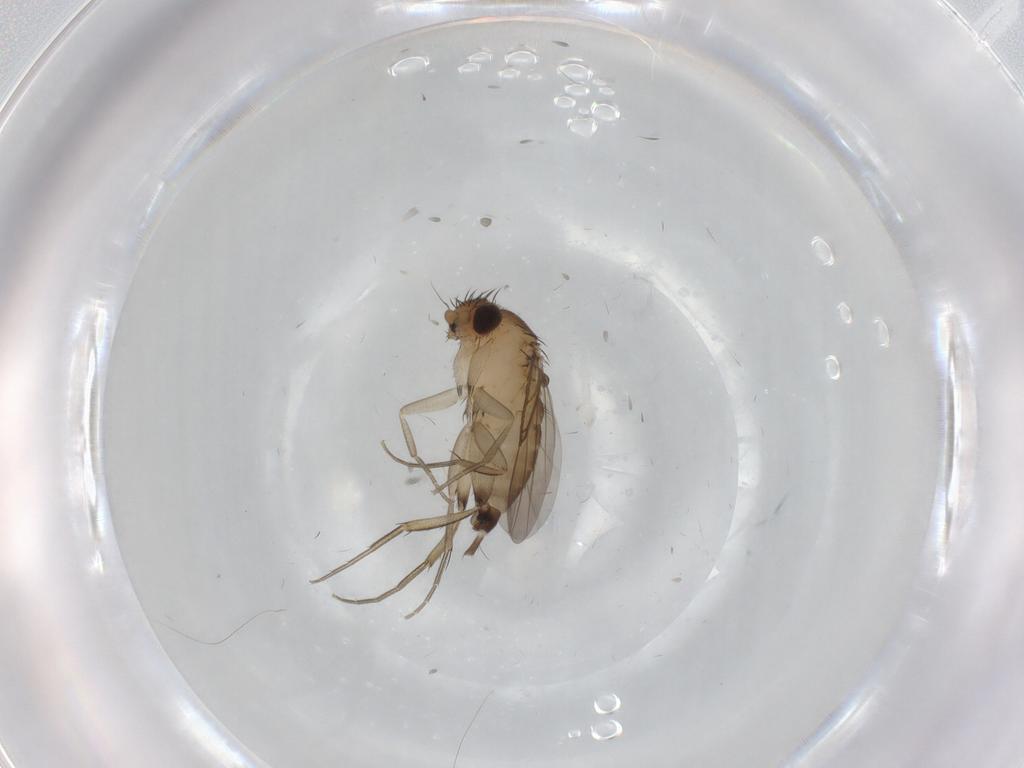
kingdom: Animalia
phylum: Arthropoda
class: Insecta
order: Diptera
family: Phoridae
